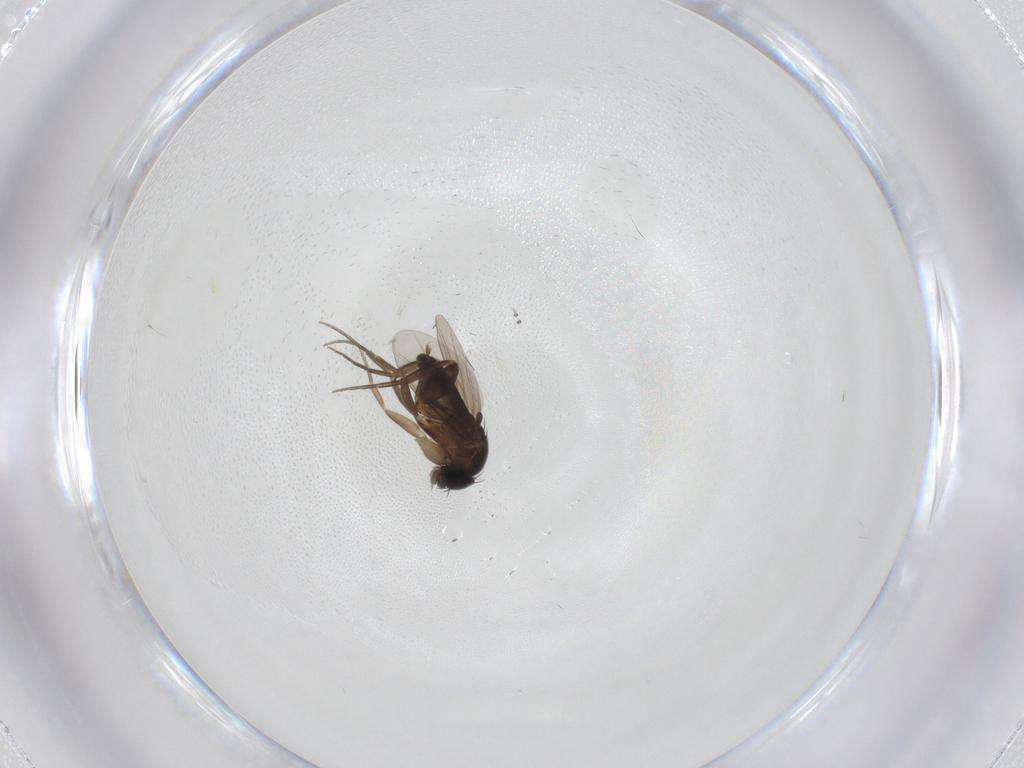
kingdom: Animalia
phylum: Arthropoda
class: Insecta
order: Diptera
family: Phoridae
